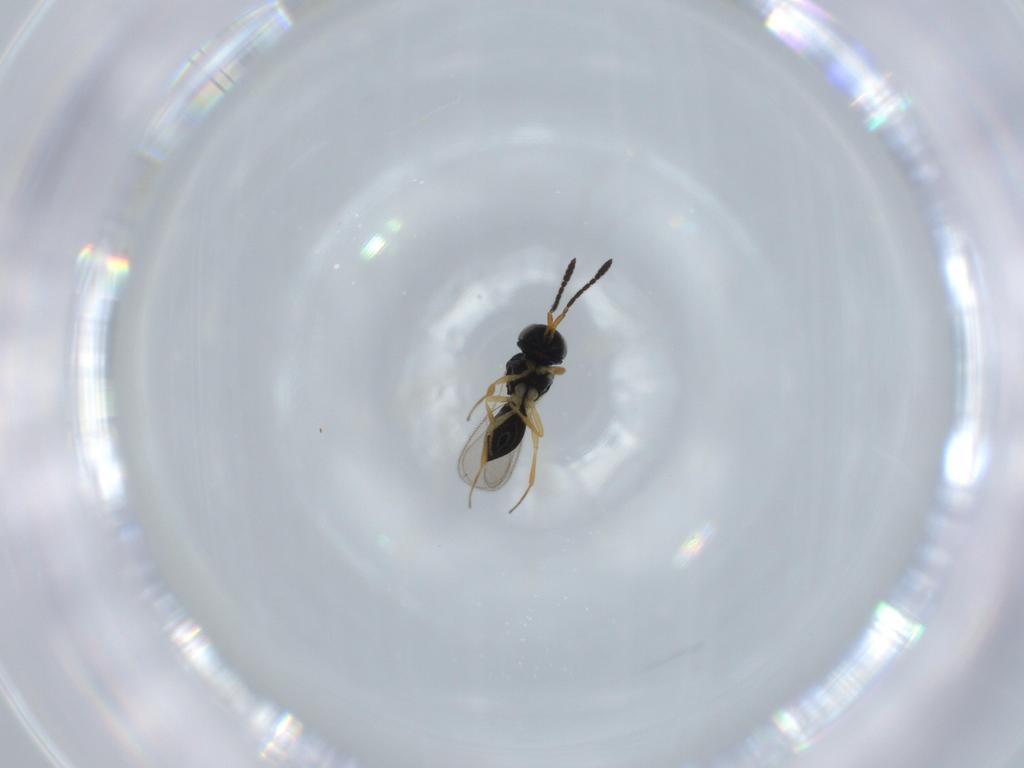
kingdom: Animalia
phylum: Arthropoda
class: Insecta
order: Hymenoptera
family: Scelionidae
